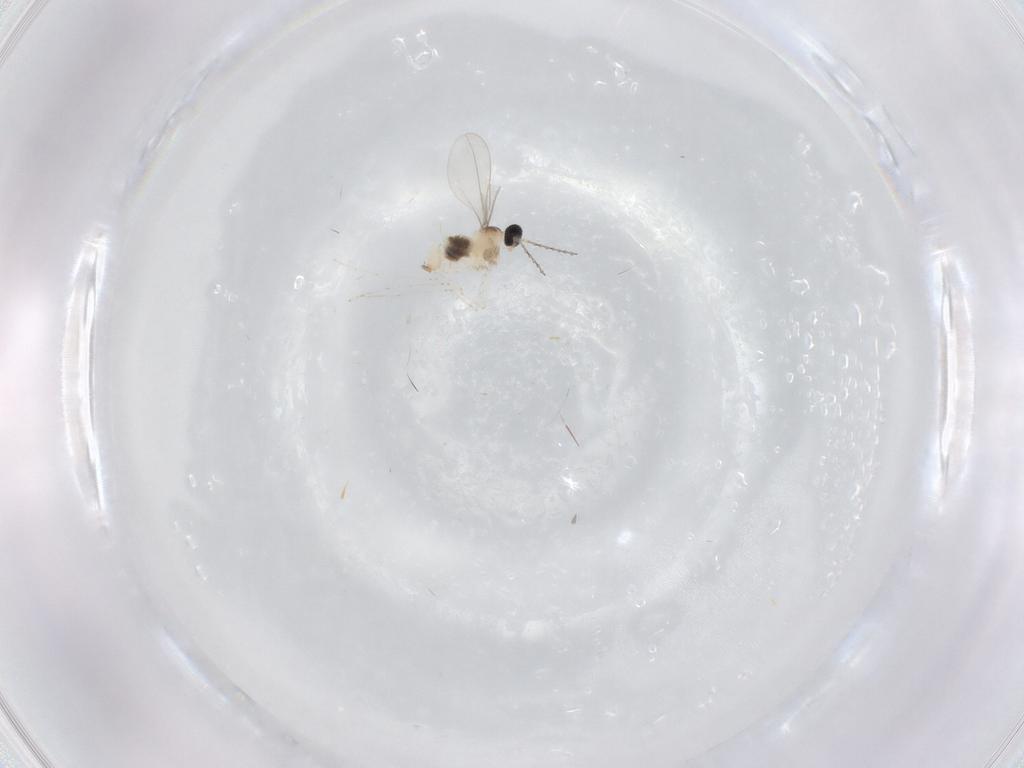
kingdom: Animalia
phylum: Arthropoda
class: Insecta
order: Diptera
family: Cecidomyiidae
